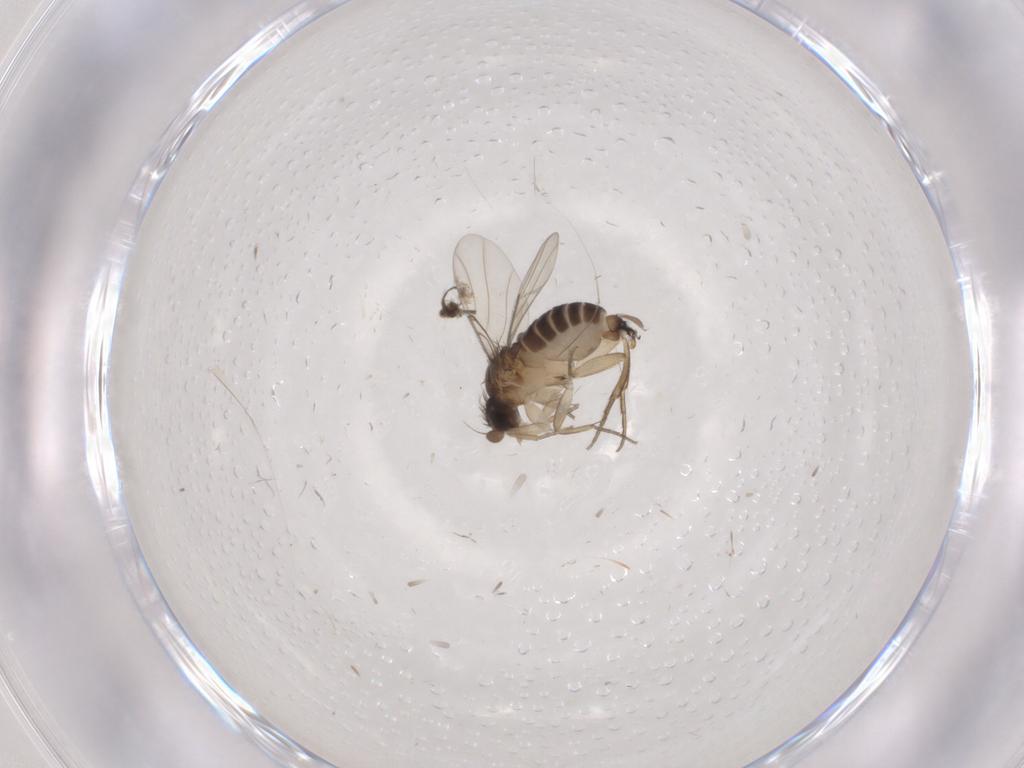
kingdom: Animalia
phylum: Arthropoda
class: Insecta
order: Diptera
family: Chironomidae
